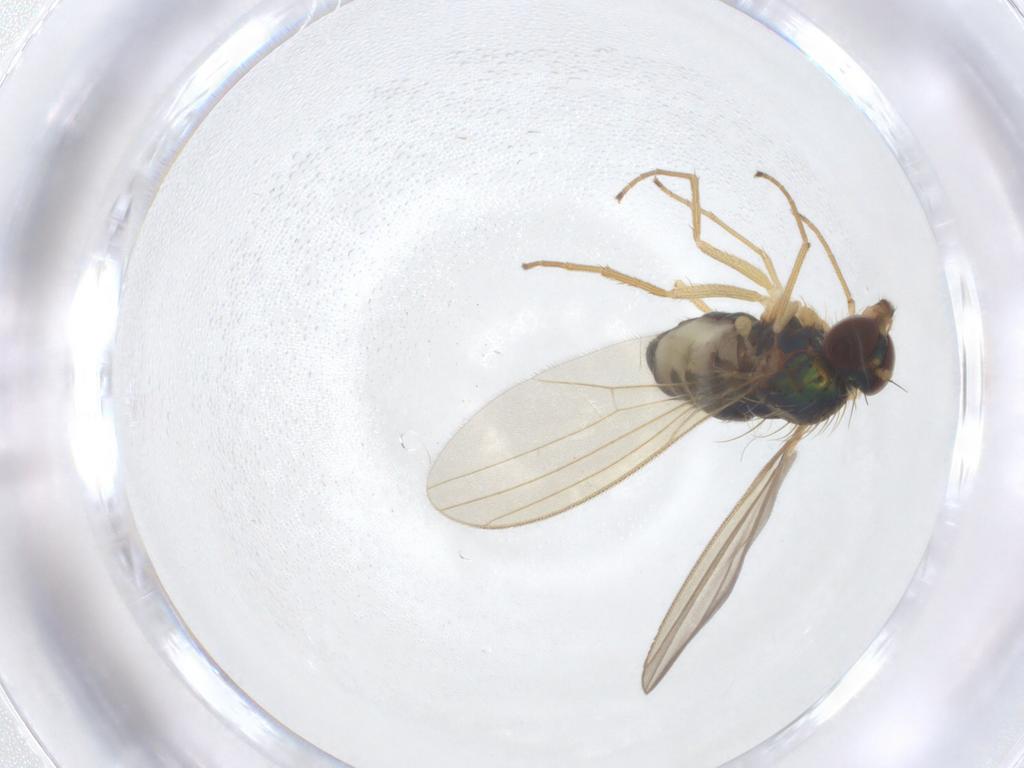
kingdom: Animalia
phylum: Arthropoda
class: Insecta
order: Diptera
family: Dolichopodidae
